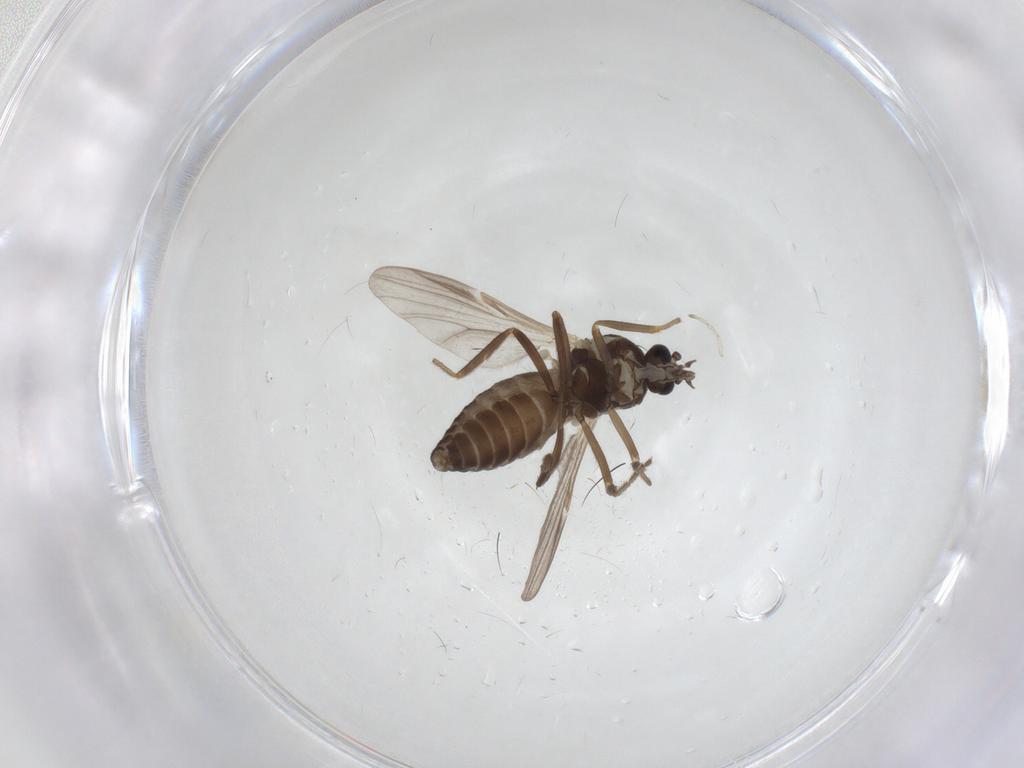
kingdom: Animalia
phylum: Arthropoda
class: Insecta
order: Diptera
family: Ceratopogonidae
